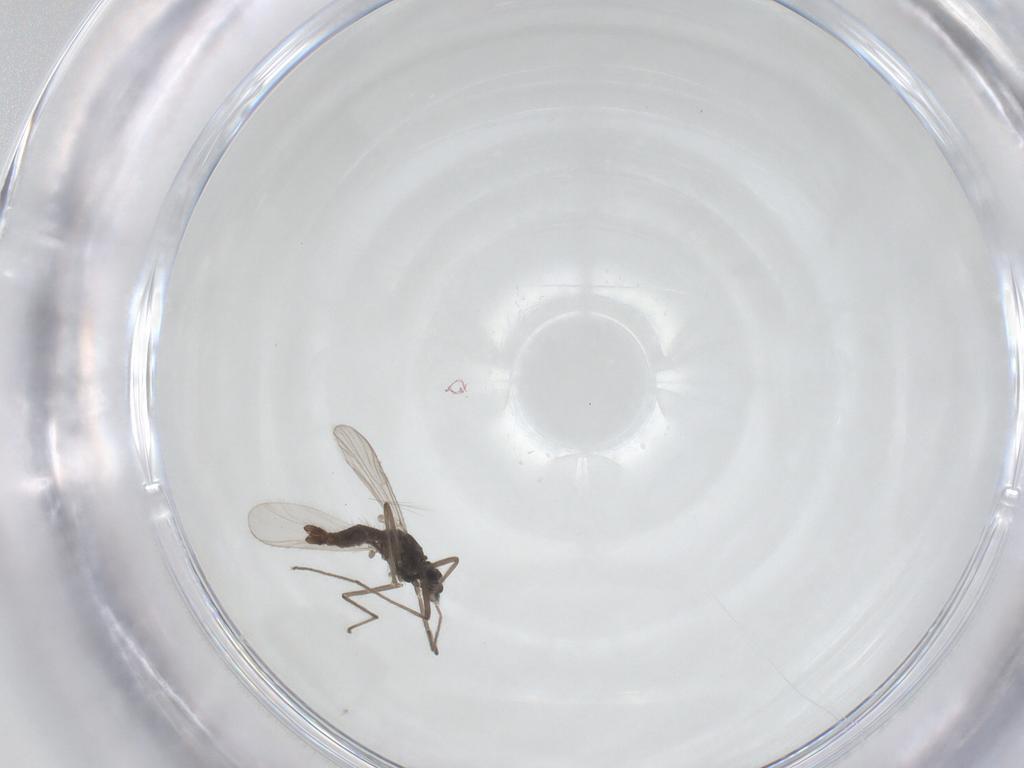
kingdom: Animalia
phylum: Arthropoda
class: Insecta
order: Diptera
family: Chironomidae
